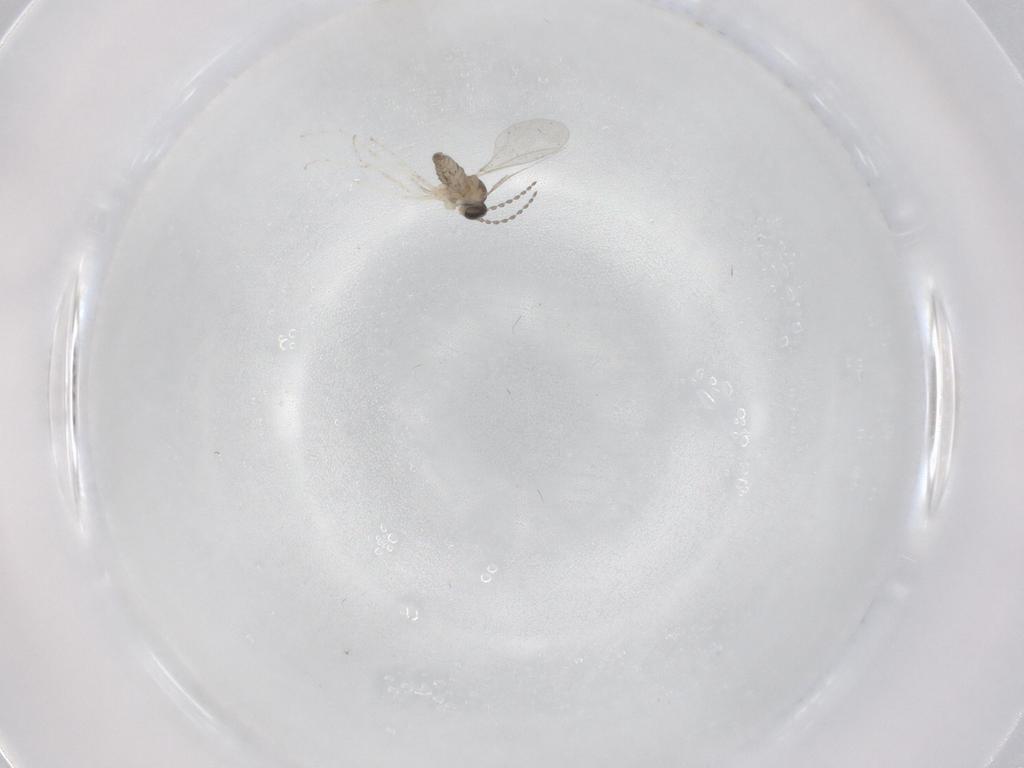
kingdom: Animalia
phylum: Arthropoda
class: Insecta
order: Diptera
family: Cecidomyiidae
